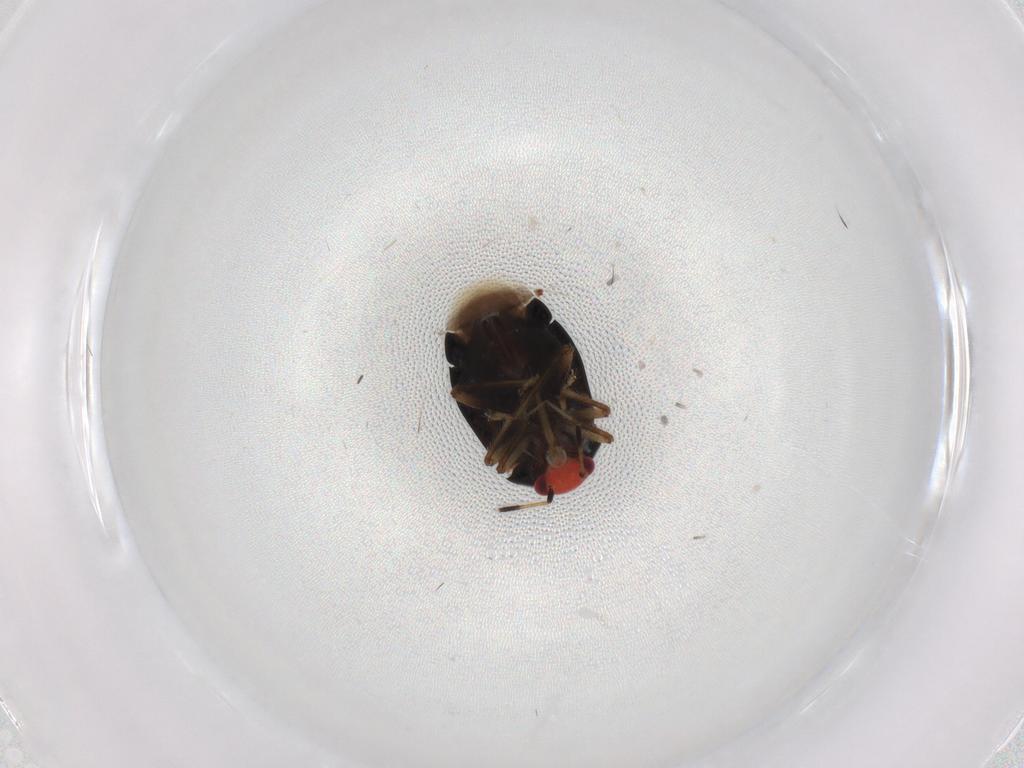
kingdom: Animalia
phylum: Arthropoda
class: Insecta
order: Hemiptera
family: Miridae
